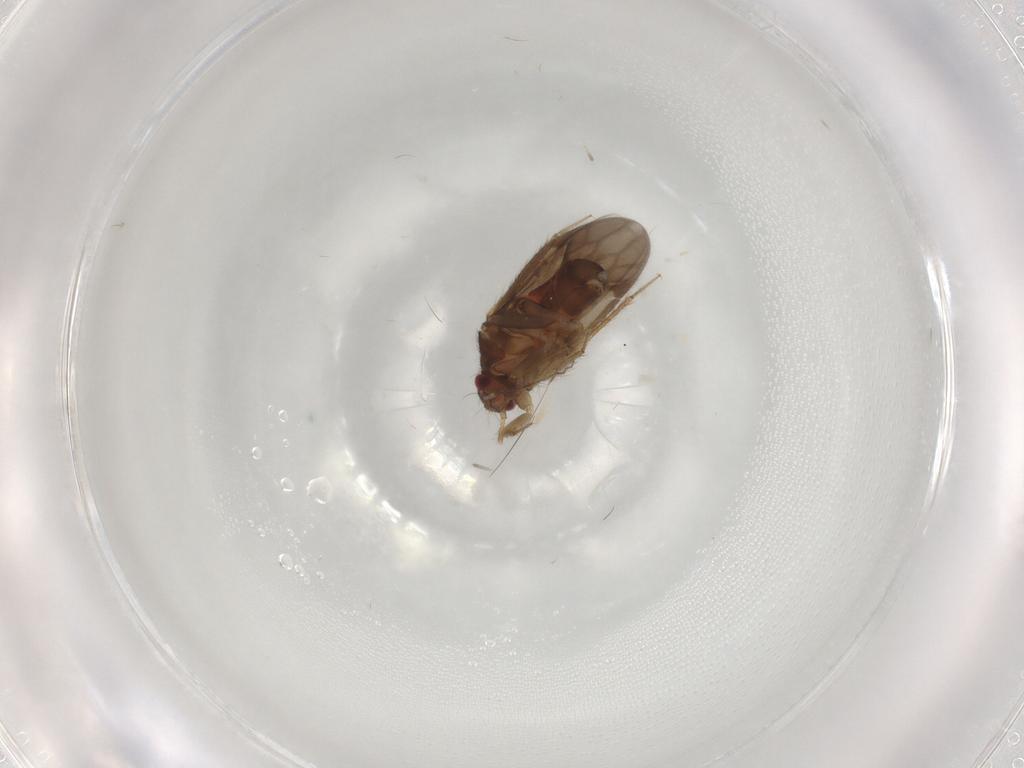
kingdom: Animalia
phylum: Arthropoda
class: Insecta
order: Hemiptera
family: Ceratocombidae
